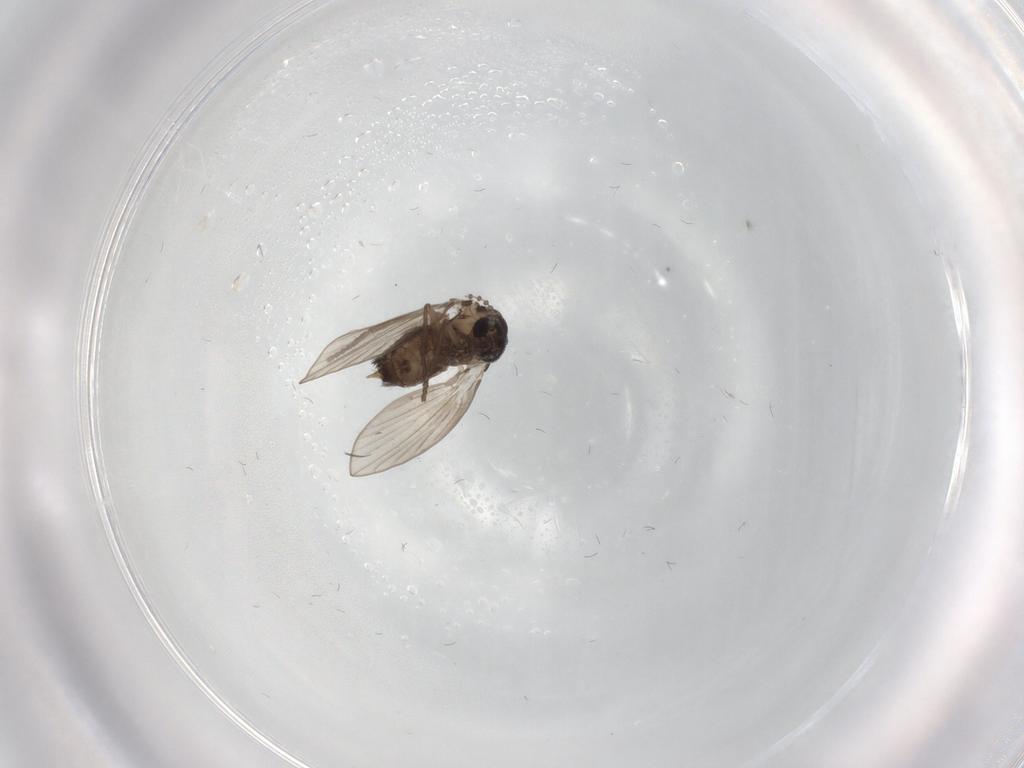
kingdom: Animalia
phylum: Arthropoda
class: Insecta
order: Diptera
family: Psychodidae
